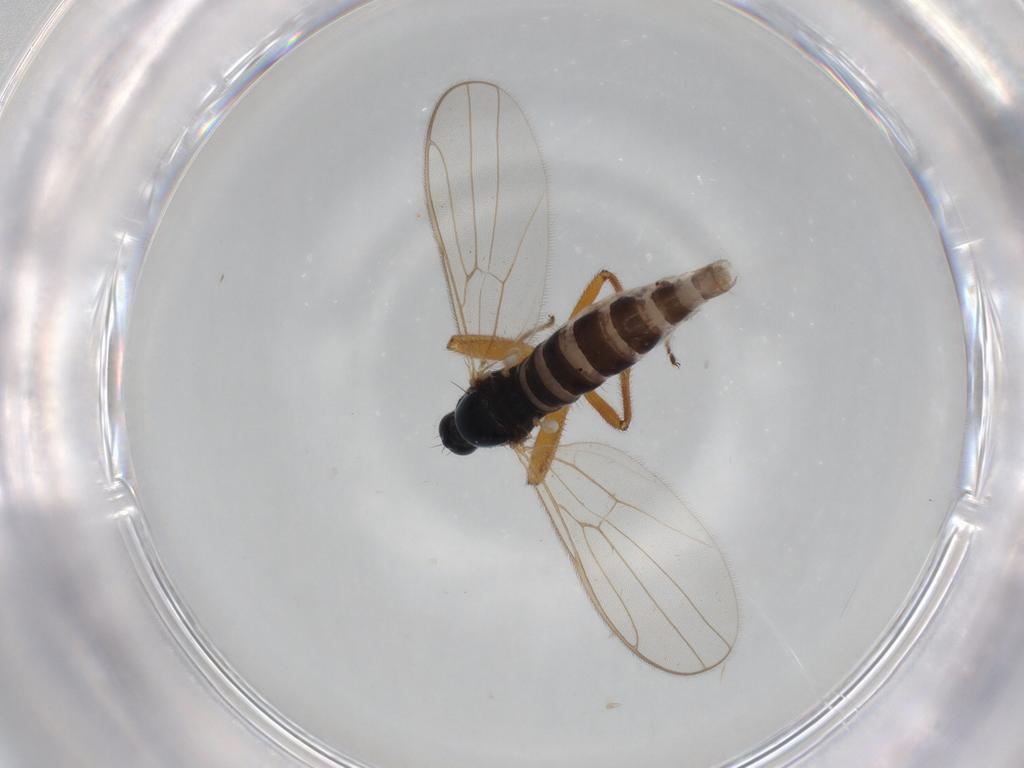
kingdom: Animalia
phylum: Arthropoda
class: Insecta
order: Diptera
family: Hybotidae
